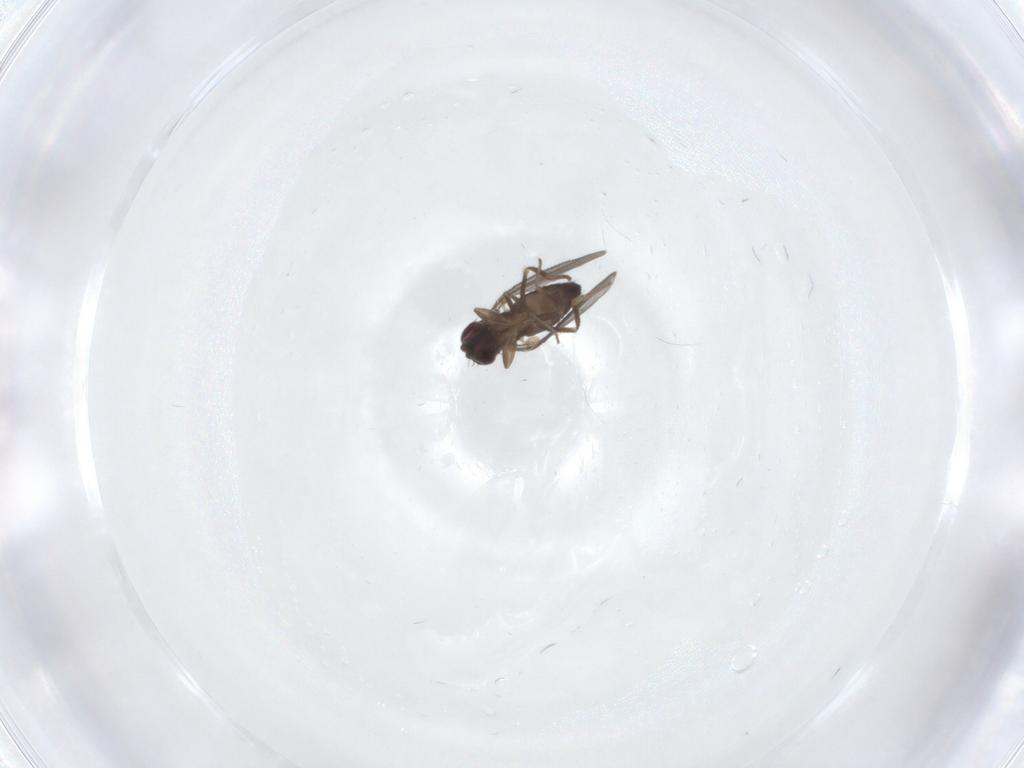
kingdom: Animalia
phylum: Arthropoda
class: Insecta
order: Diptera
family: Dolichopodidae
